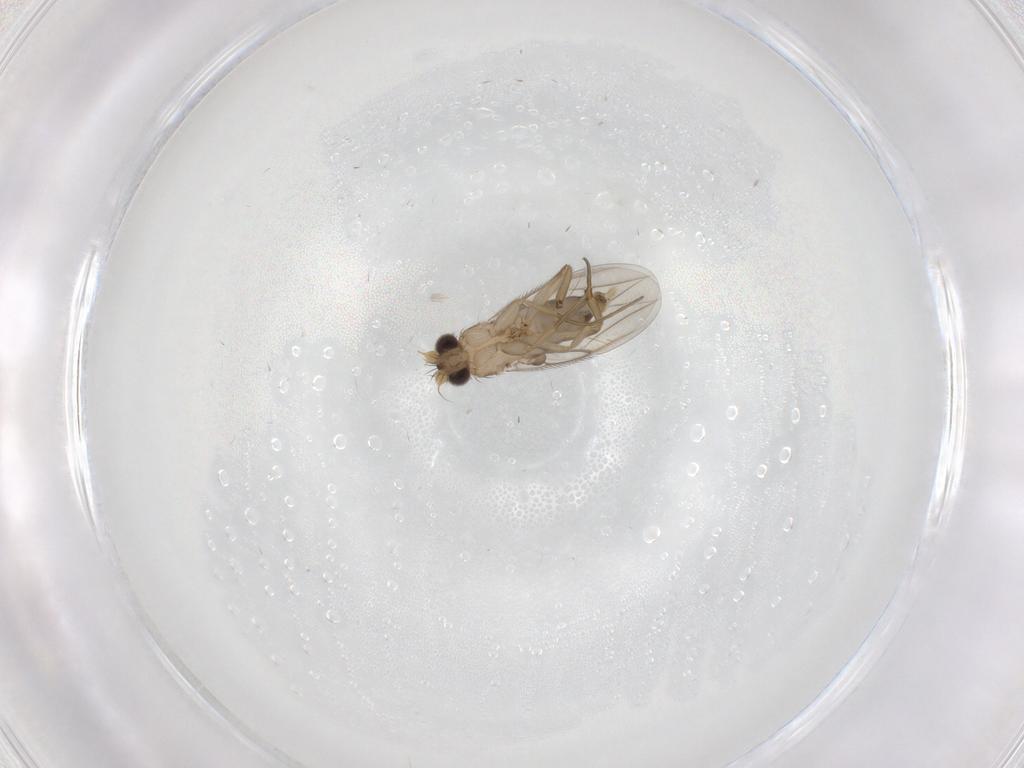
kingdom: Animalia
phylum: Arthropoda
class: Insecta
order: Diptera
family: Phoridae
